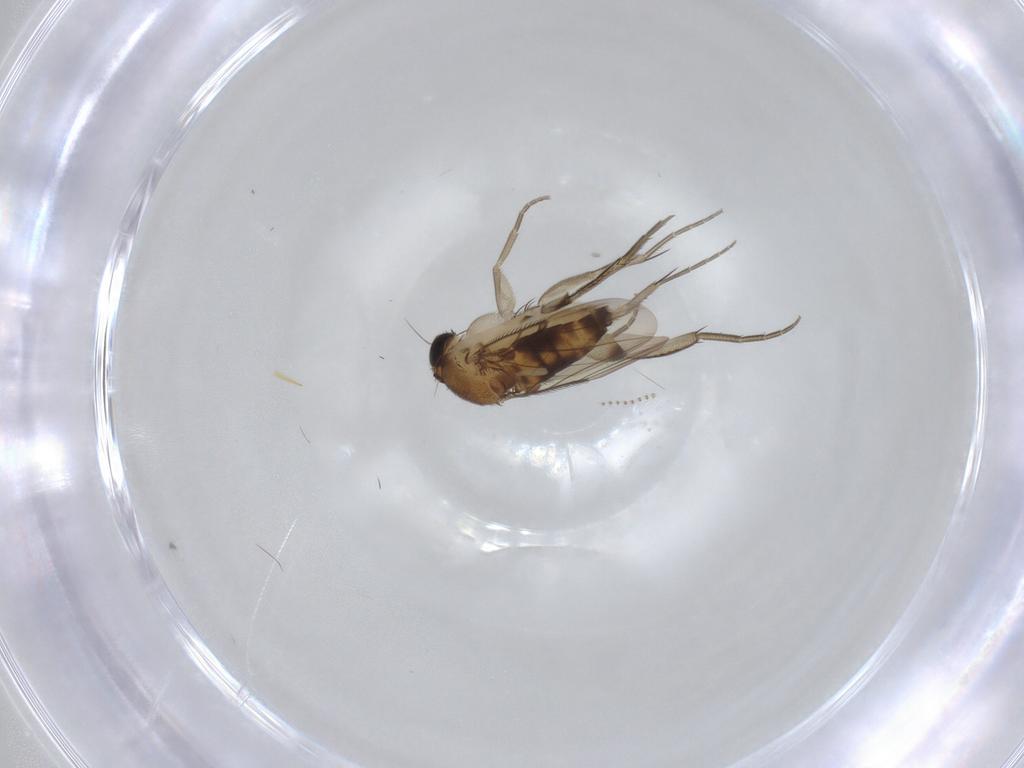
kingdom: Animalia
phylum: Arthropoda
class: Insecta
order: Diptera
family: Phoridae
